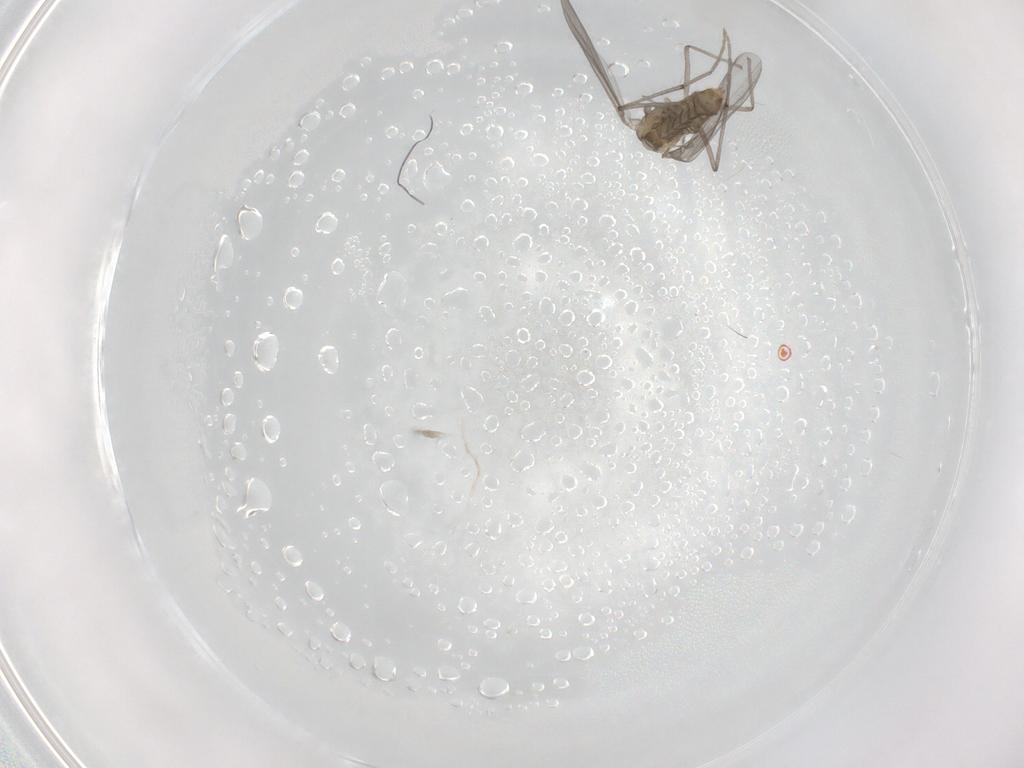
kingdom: Animalia
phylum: Arthropoda
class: Insecta
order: Diptera
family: Chironomidae
